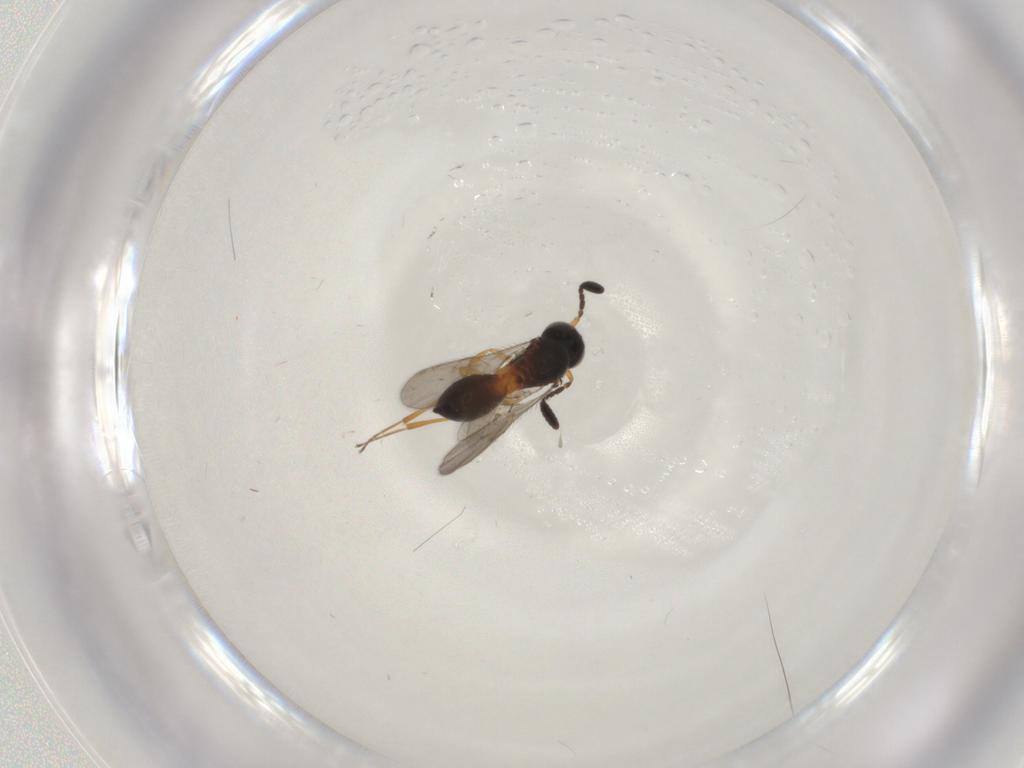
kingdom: Animalia
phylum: Arthropoda
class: Insecta
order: Hymenoptera
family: Scelionidae
